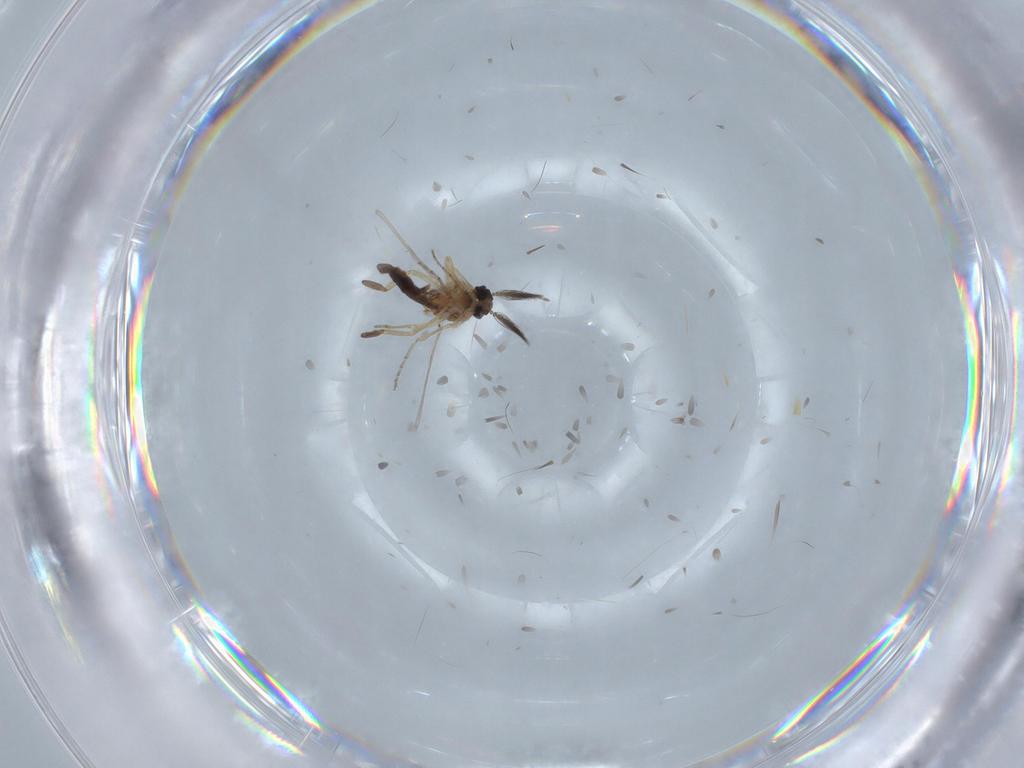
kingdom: Animalia
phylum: Arthropoda
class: Insecta
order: Diptera
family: Ceratopogonidae
